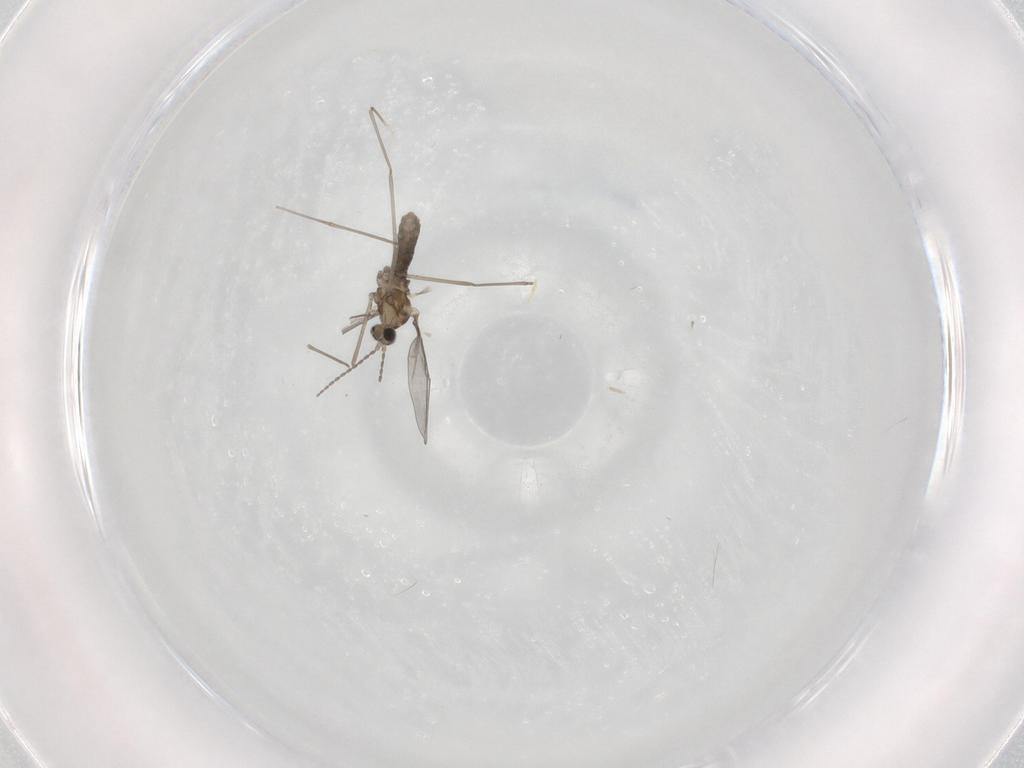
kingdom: Animalia
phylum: Arthropoda
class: Insecta
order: Diptera
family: Cecidomyiidae
